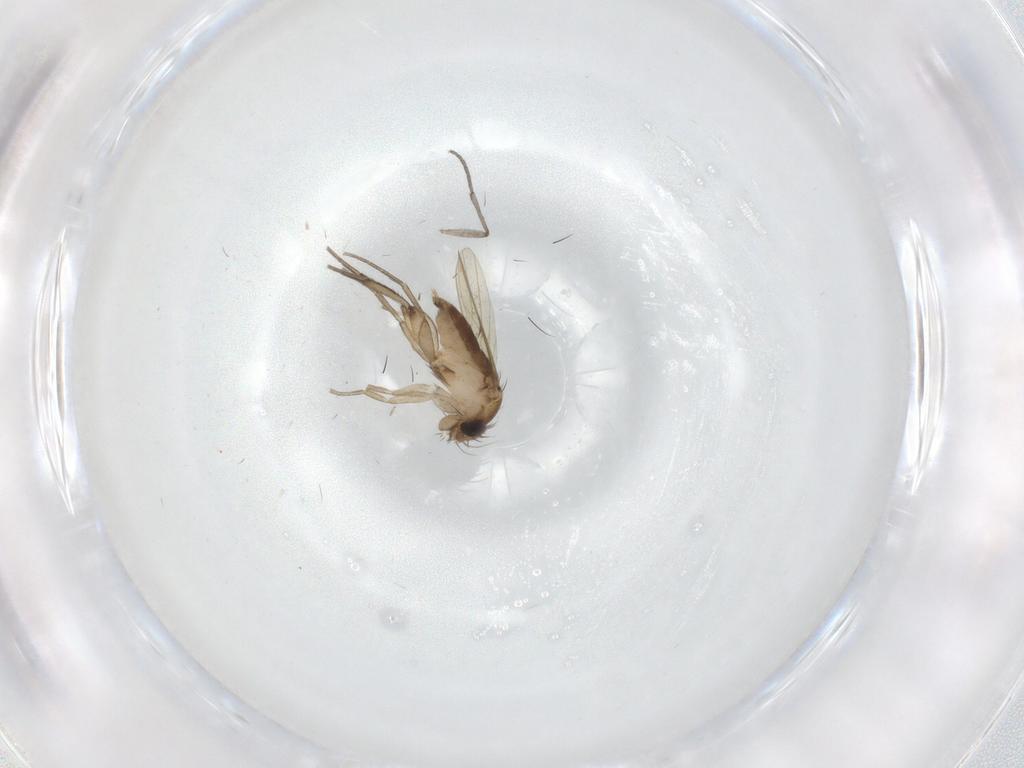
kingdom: Animalia
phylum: Arthropoda
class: Insecta
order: Diptera
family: Phoridae
